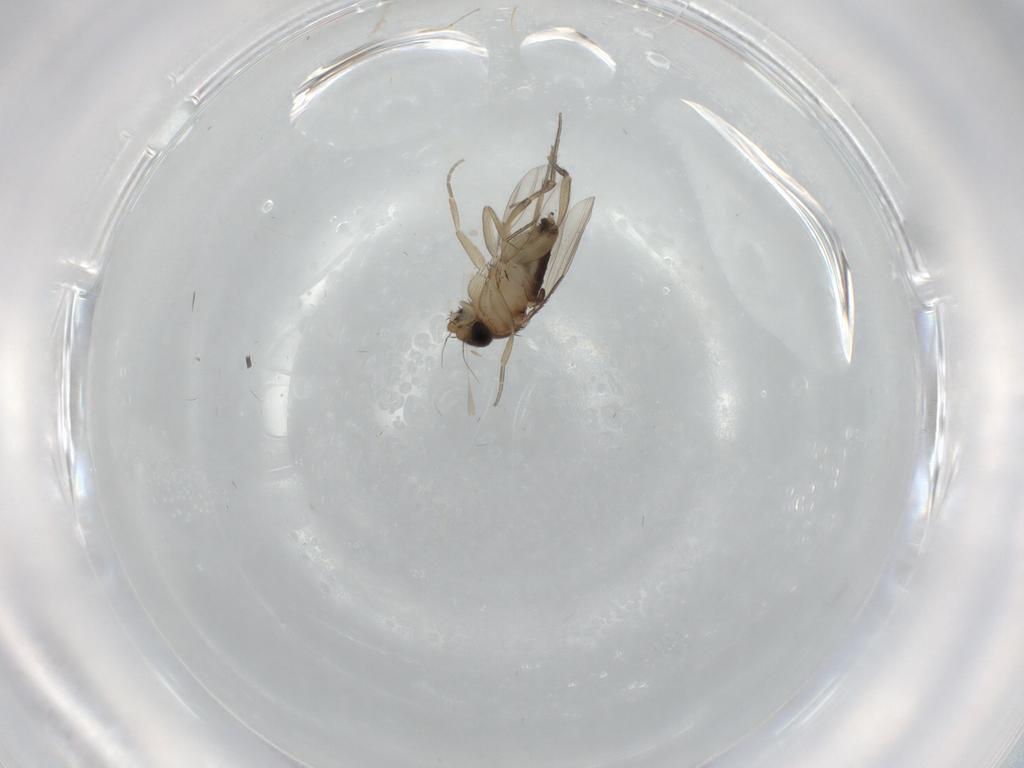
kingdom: Animalia
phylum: Arthropoda
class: Insecta
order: Diptera
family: Phoridae
